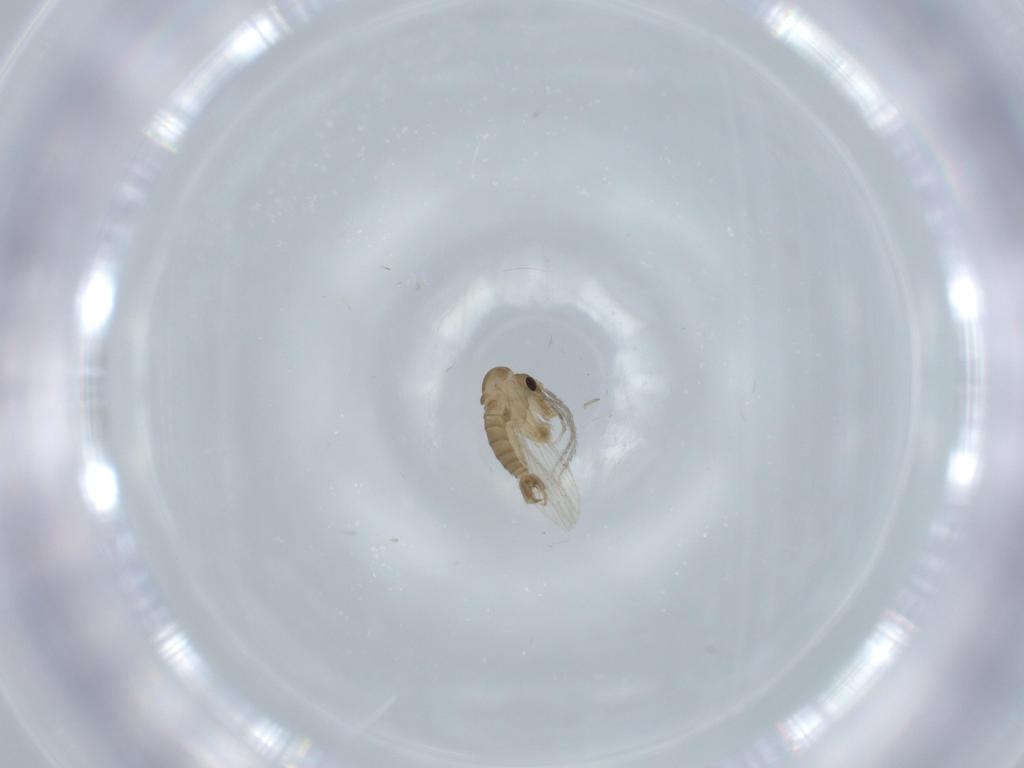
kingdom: Animalia
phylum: Arthropoda
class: Insecta
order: Diptera
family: Psychodidae
